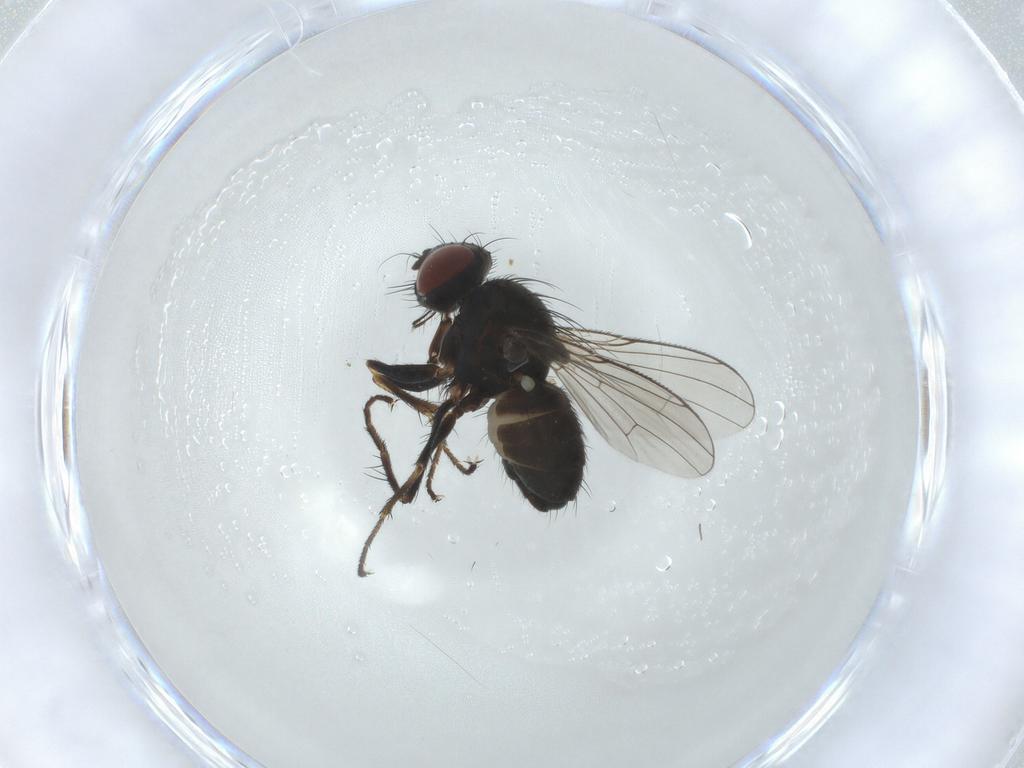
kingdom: Animalia
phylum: Arthropoda
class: Insecta
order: Diptera
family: Muscidae
